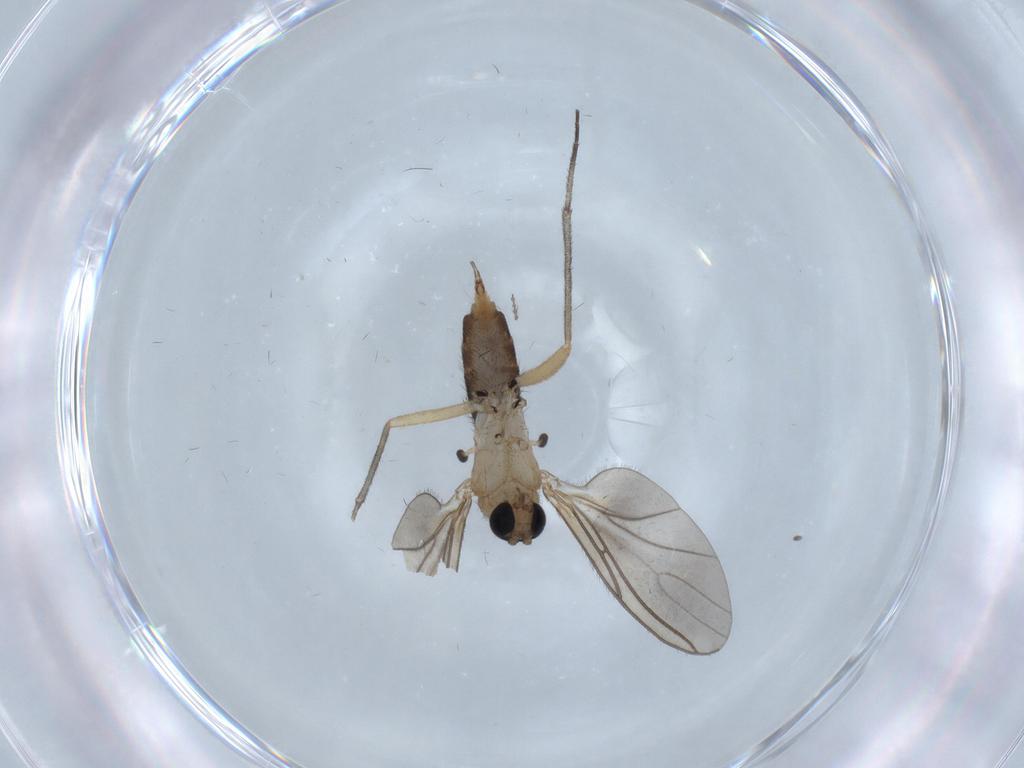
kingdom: Animalia
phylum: Arthropoda
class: Insecta
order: Diptera
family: Sciaridae
